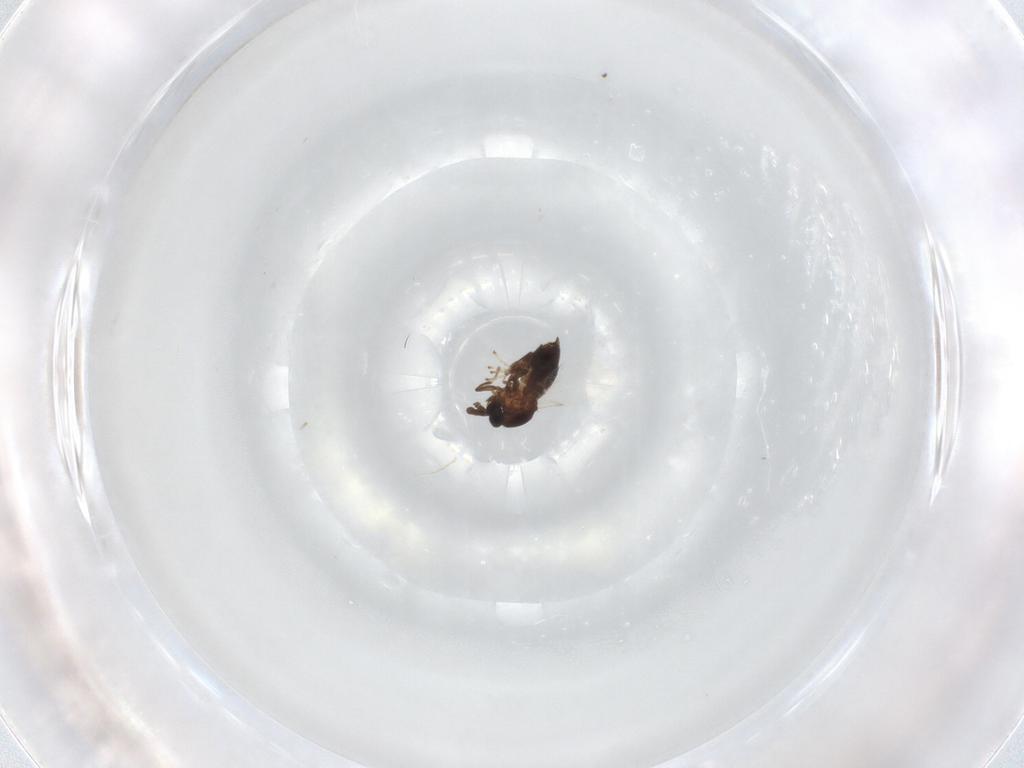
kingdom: Animalia
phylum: Arthropoda
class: Insecta
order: Diptera
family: Scatopsidae
